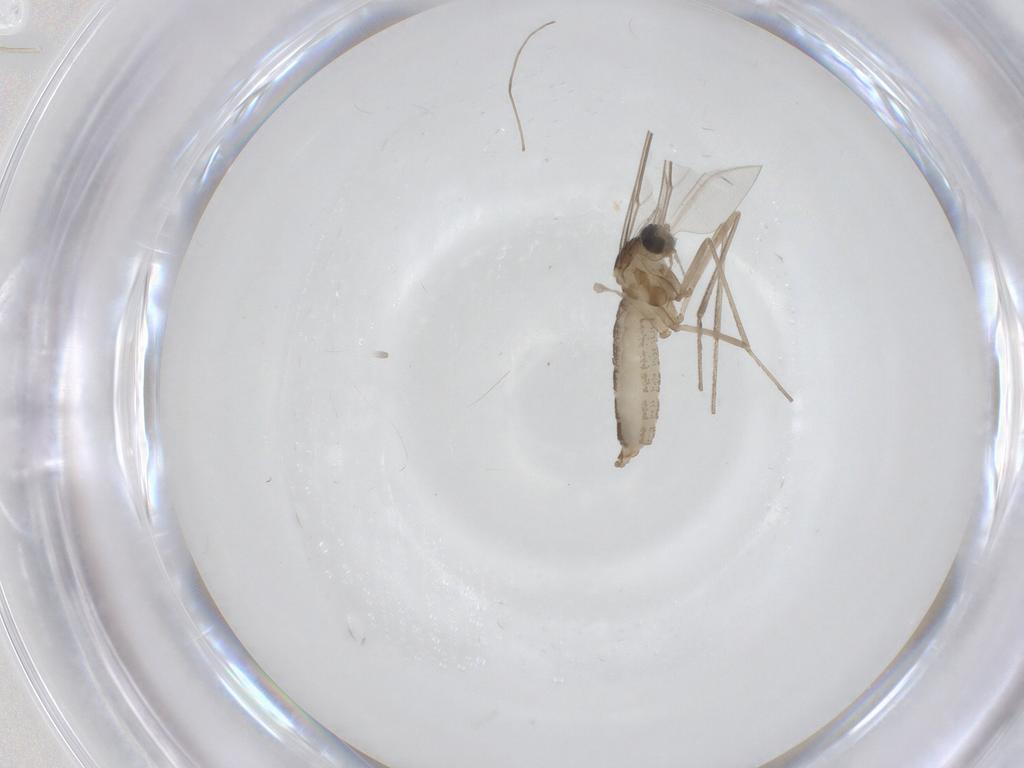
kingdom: Animalia
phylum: Arthropoda
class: Insecta
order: Diptera
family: Cecidomyiidae
